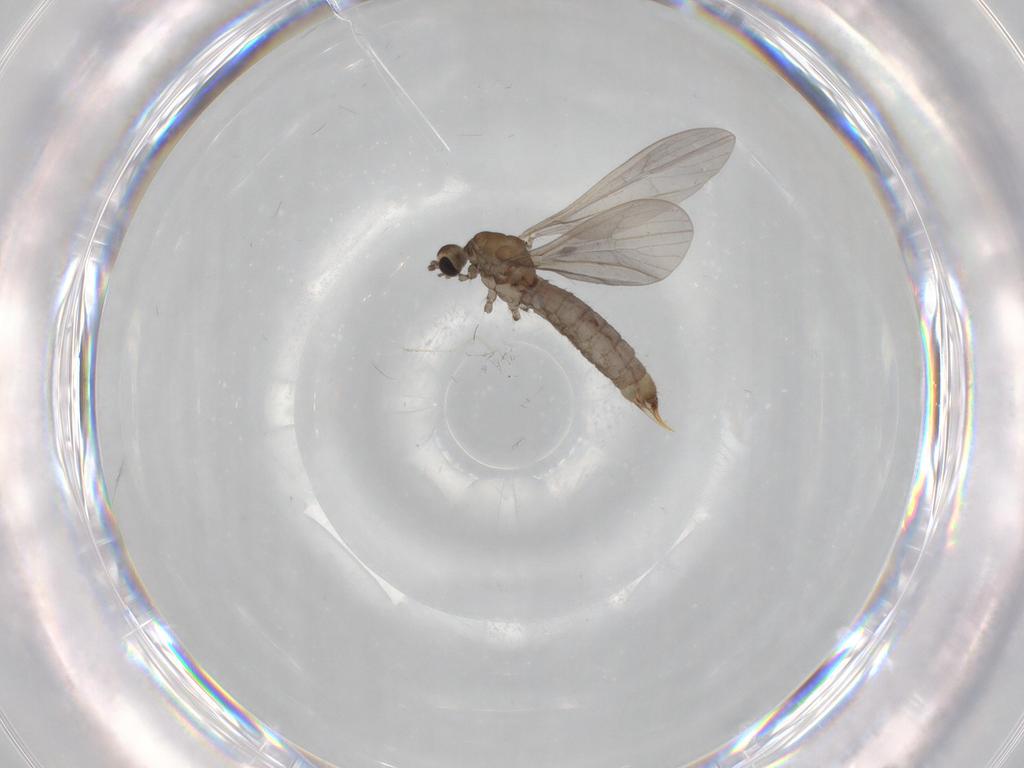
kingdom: Animalia
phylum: Arthropoda
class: Insecta
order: Diptera
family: Limoniidae
